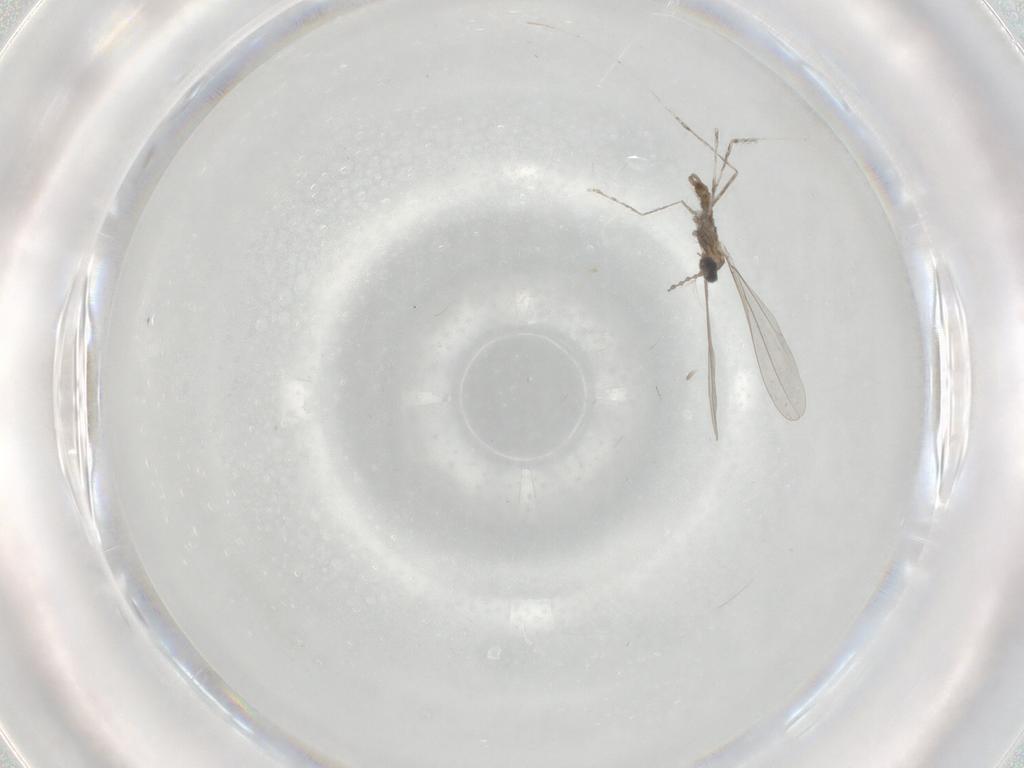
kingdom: Animalia
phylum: Arthropoda
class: Insecta
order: Diptera
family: Cecidomyiidae
